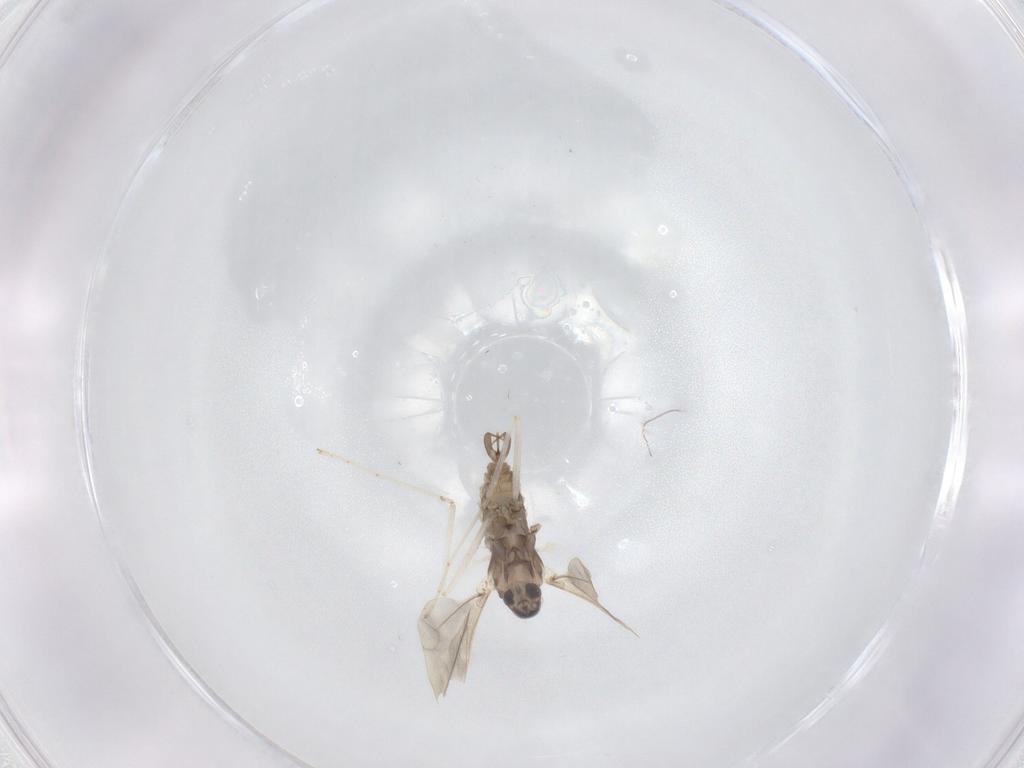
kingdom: Animalia
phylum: Arthropoda
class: Insecta
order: Diptera
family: Cecidomyiidae
